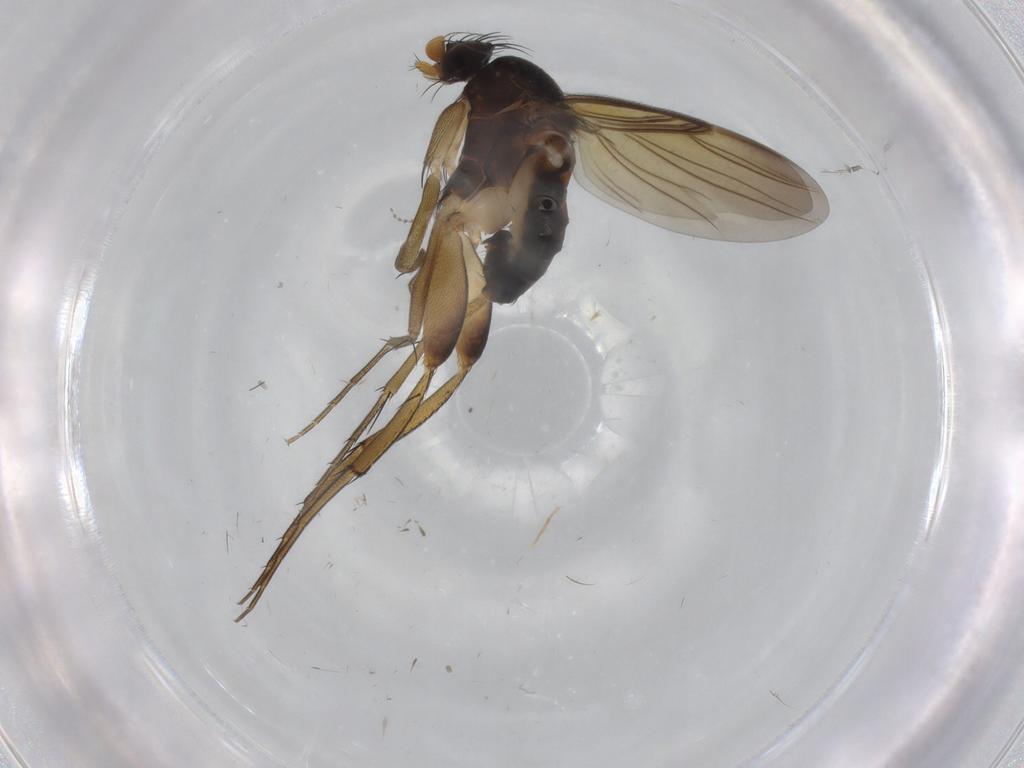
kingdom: Animalia
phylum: Arthropoda
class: Insecta
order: Diptera
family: Phoridae
